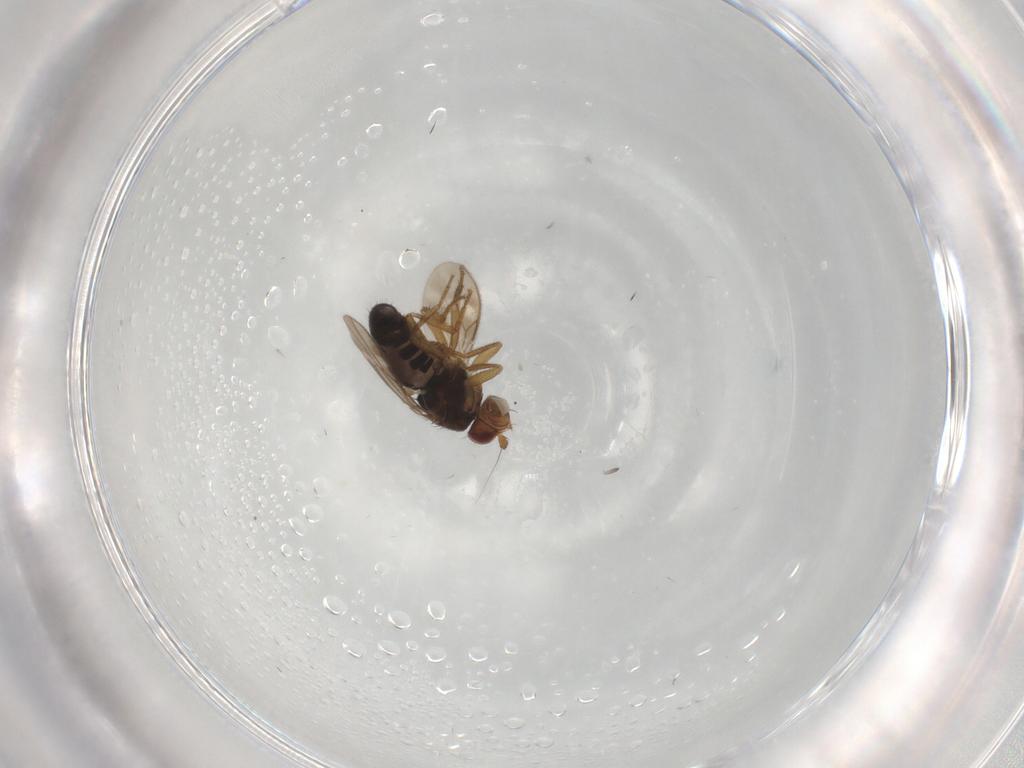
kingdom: Animalia
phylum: Arthropoda
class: Insecta
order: Diptera
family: Sphaeroceridae
